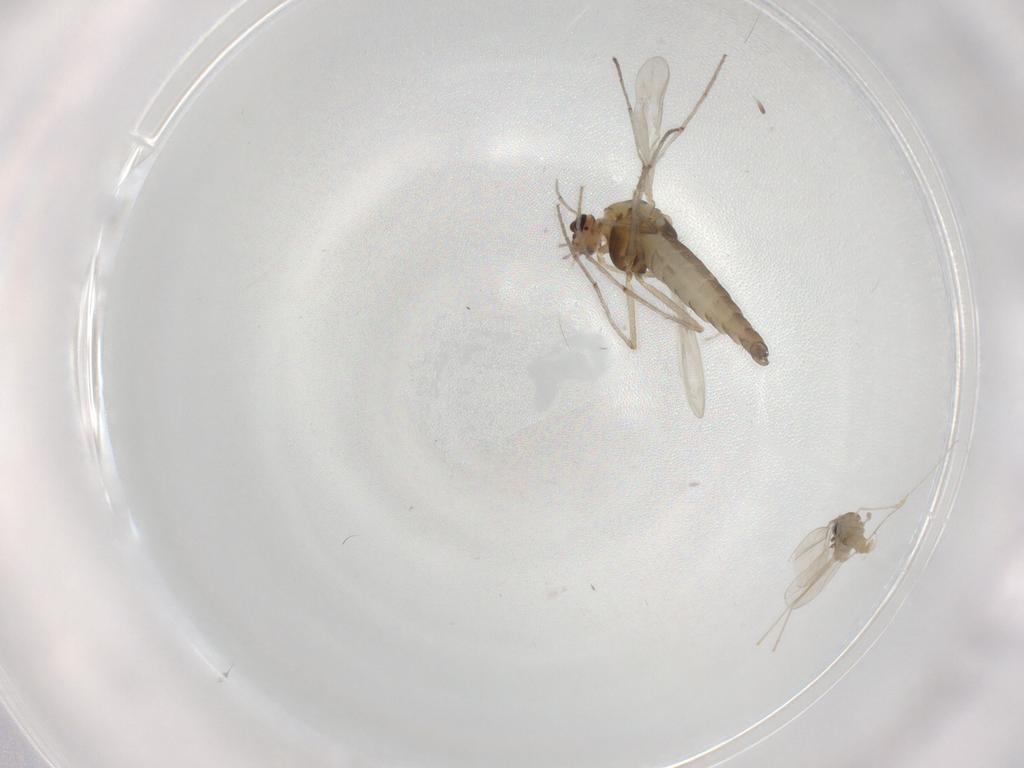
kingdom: Animalia
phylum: Arthropoda
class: Insecta
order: Diptera
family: Chironomidae
